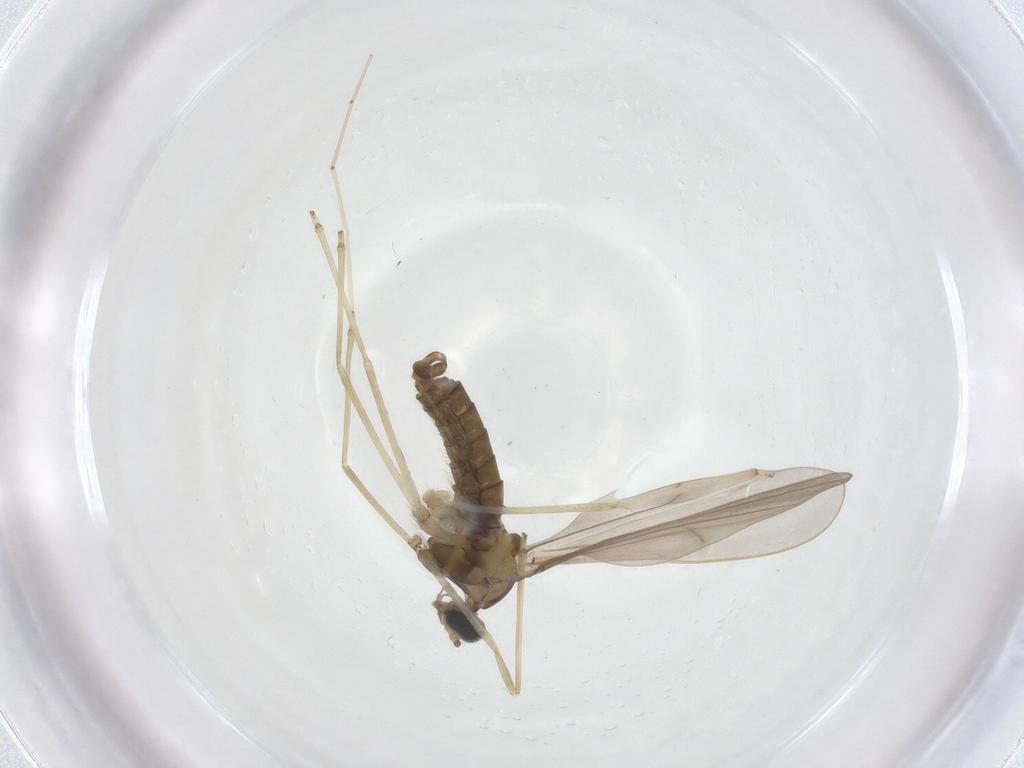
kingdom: Animalia
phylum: Arthropoda
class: Insecta
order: Diptera
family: Cecidomyiidae
